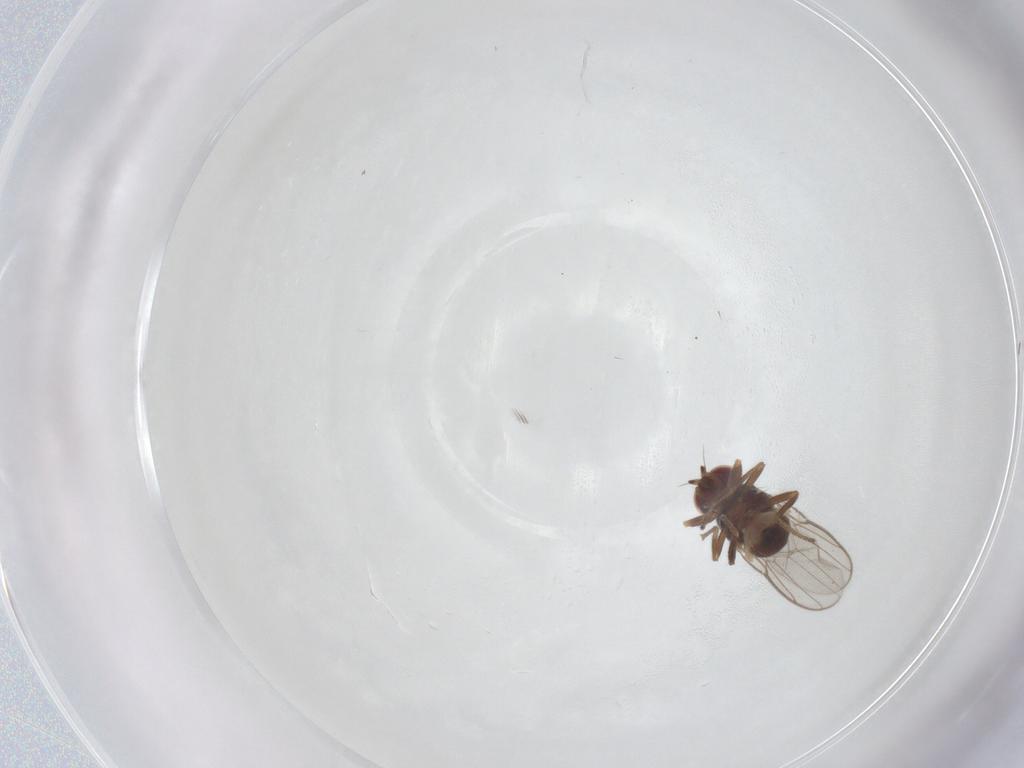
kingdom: Animalia
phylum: Arthropoda
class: Insecta
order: Diptera
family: Chloropidae
